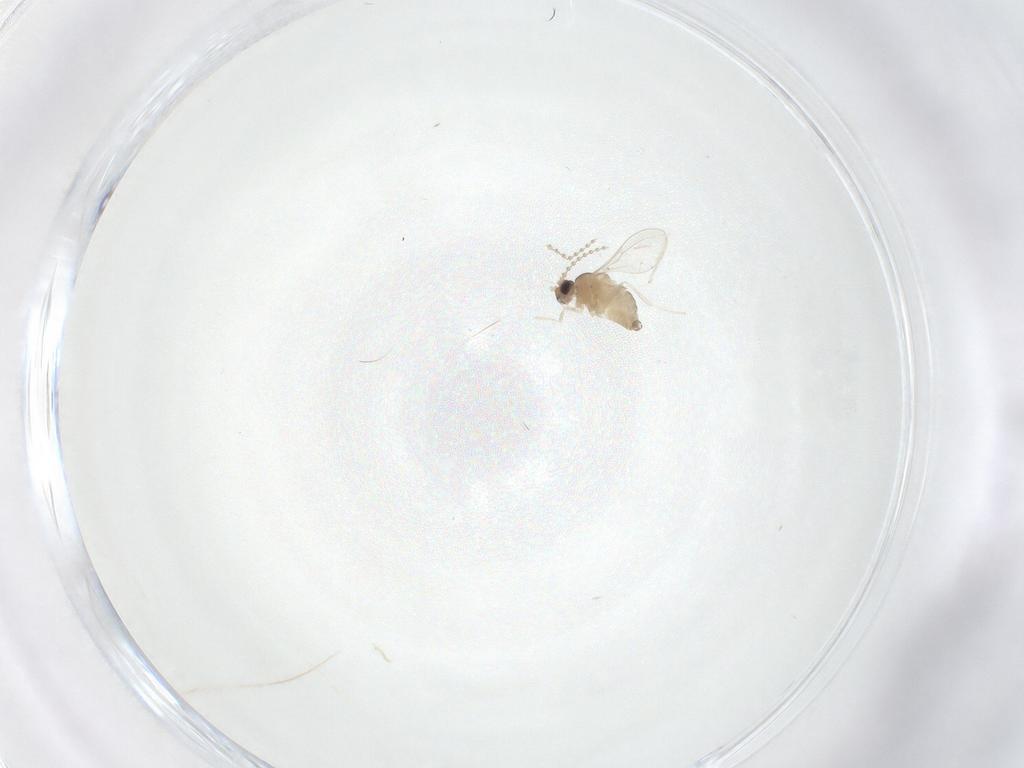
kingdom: Animalia
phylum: Arthropoda
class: Insecta
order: Diptera
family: Cecidomyiidae
